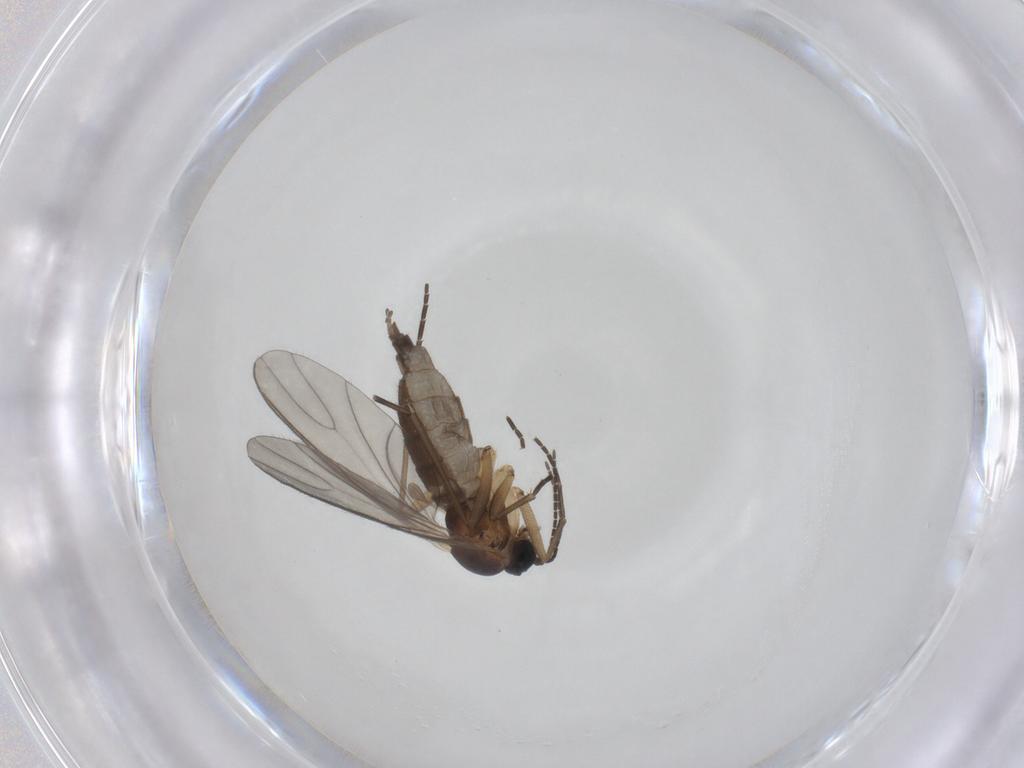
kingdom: Animalia
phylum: Arthropoda
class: Insecta
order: Diptera
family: Sciaridae
